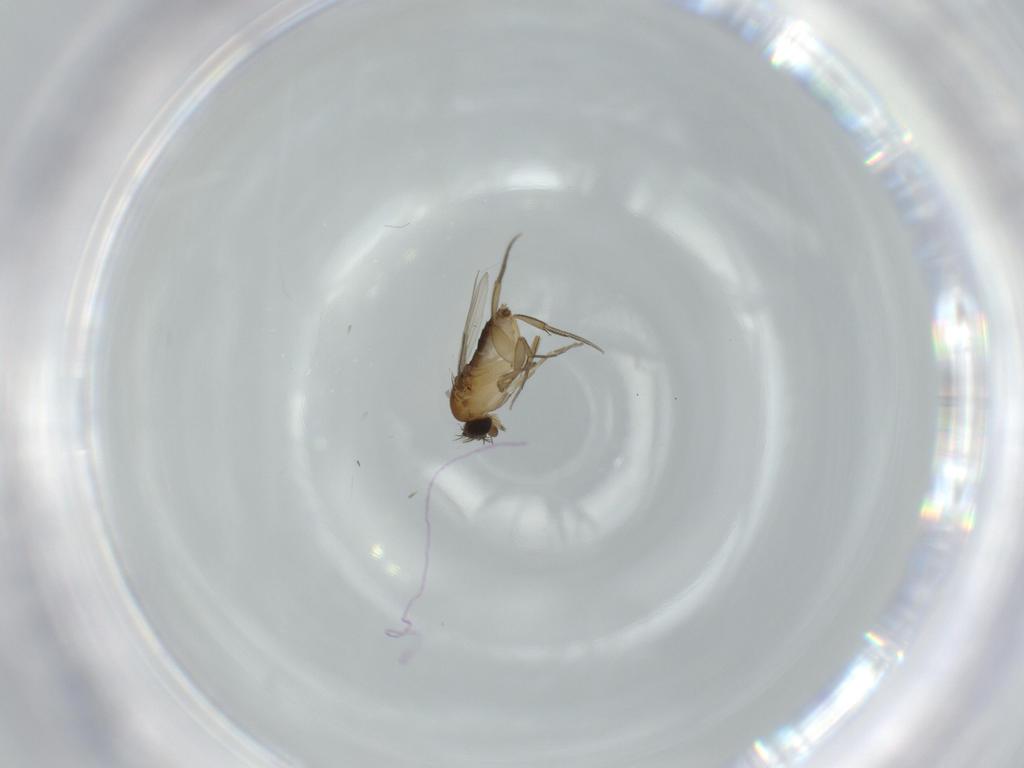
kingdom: Animalia
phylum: Arthropoda
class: Insecta
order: Diptera
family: Phoridae
